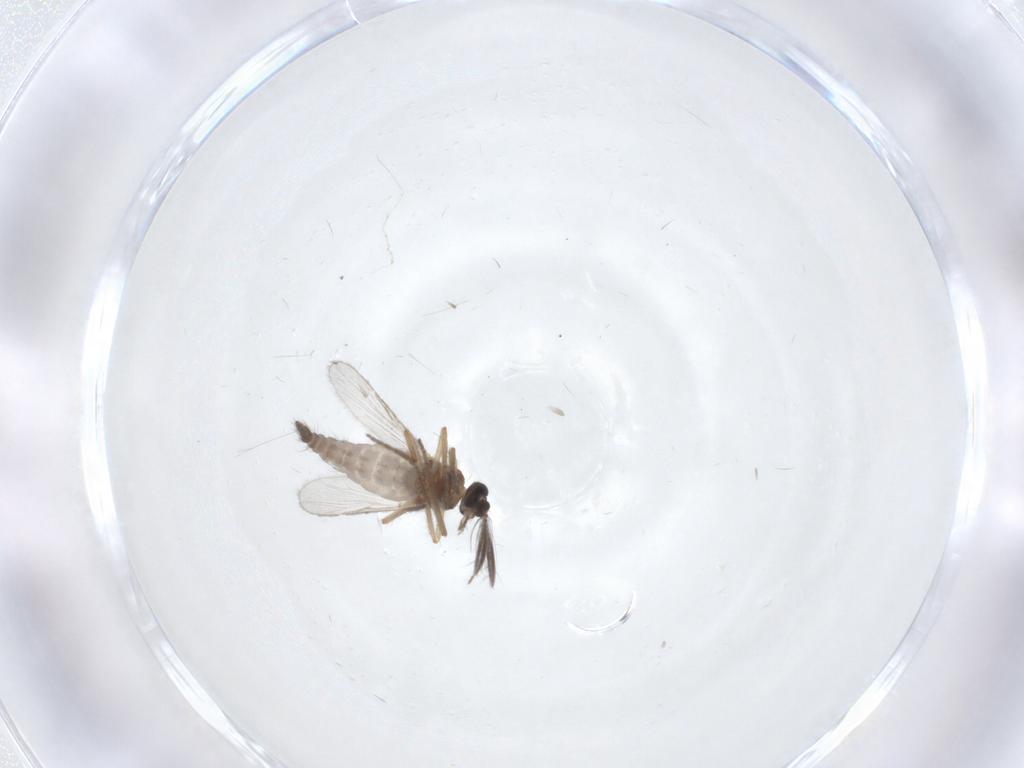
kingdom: Animalia
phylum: Arthropoda
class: Insecta
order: Diptera
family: Ceratopogonidae
